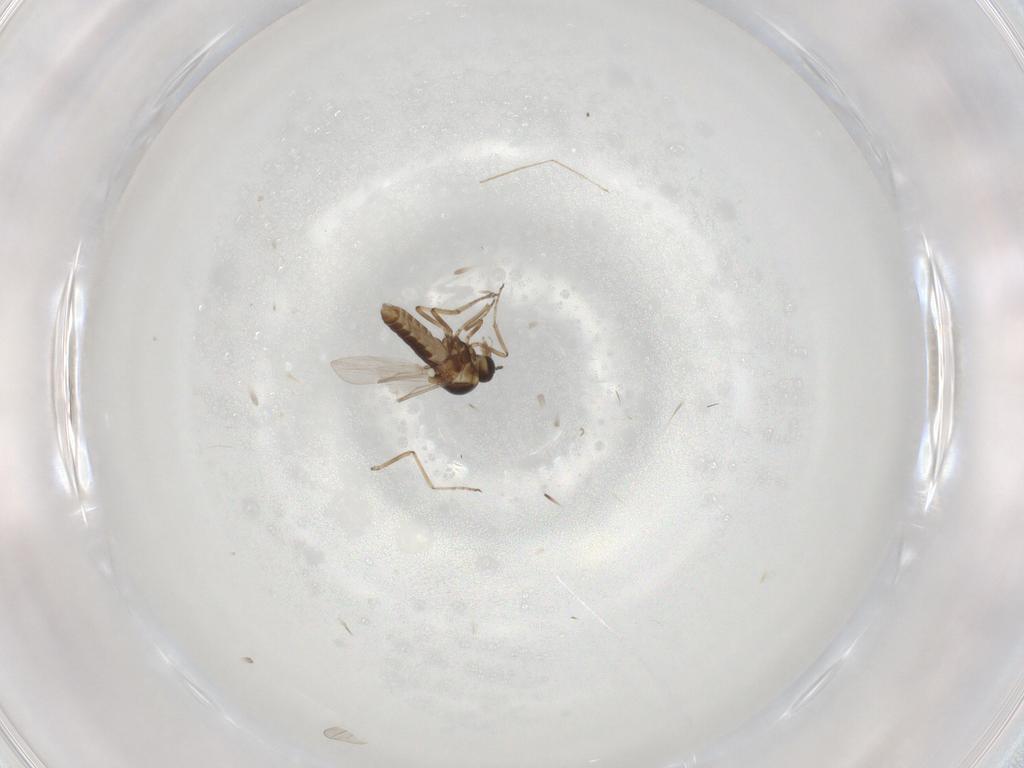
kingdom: Animalia
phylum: Arthropoda
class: Insecta
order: Diptera
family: Ceratopogonidae
